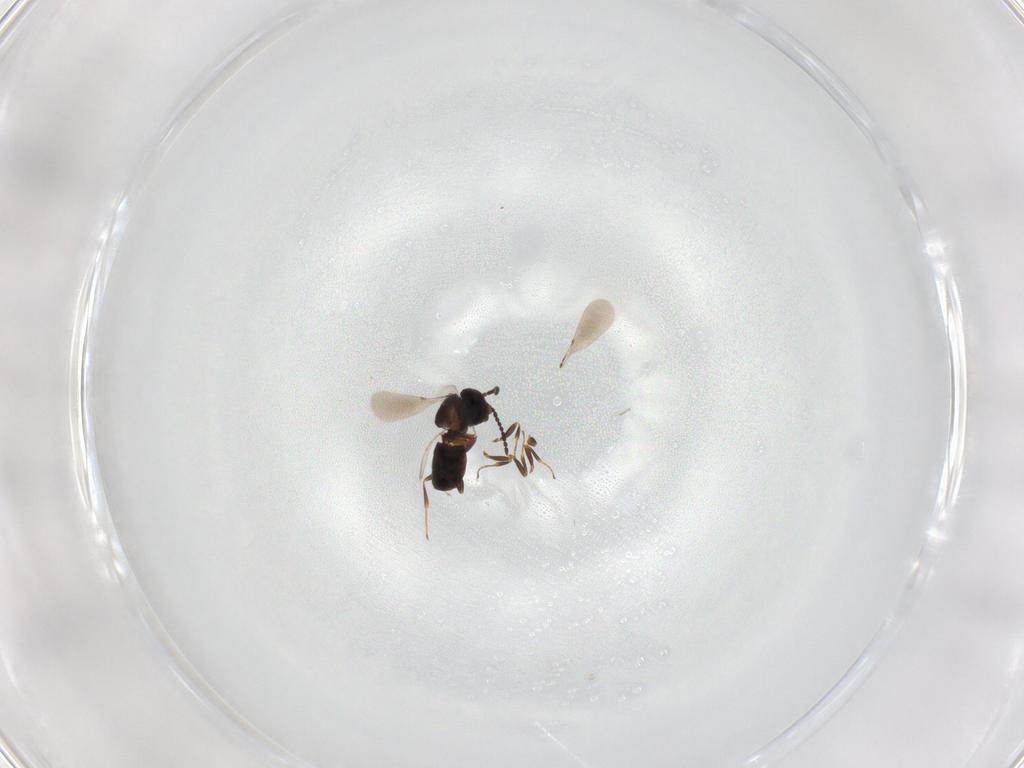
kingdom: Animalia
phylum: Arthropoda
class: Insecta
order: Hymenoptera
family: Scelionidae
